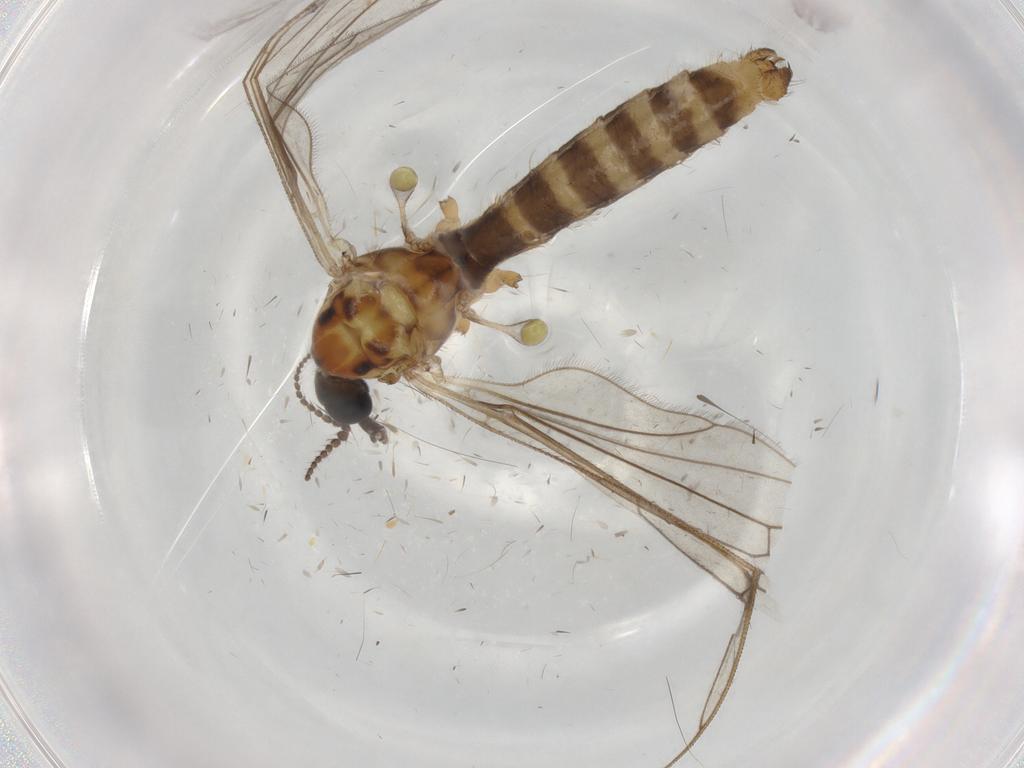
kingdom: Animalia
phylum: Arthropoda
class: Insecta
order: Diptera
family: Limoniidae
